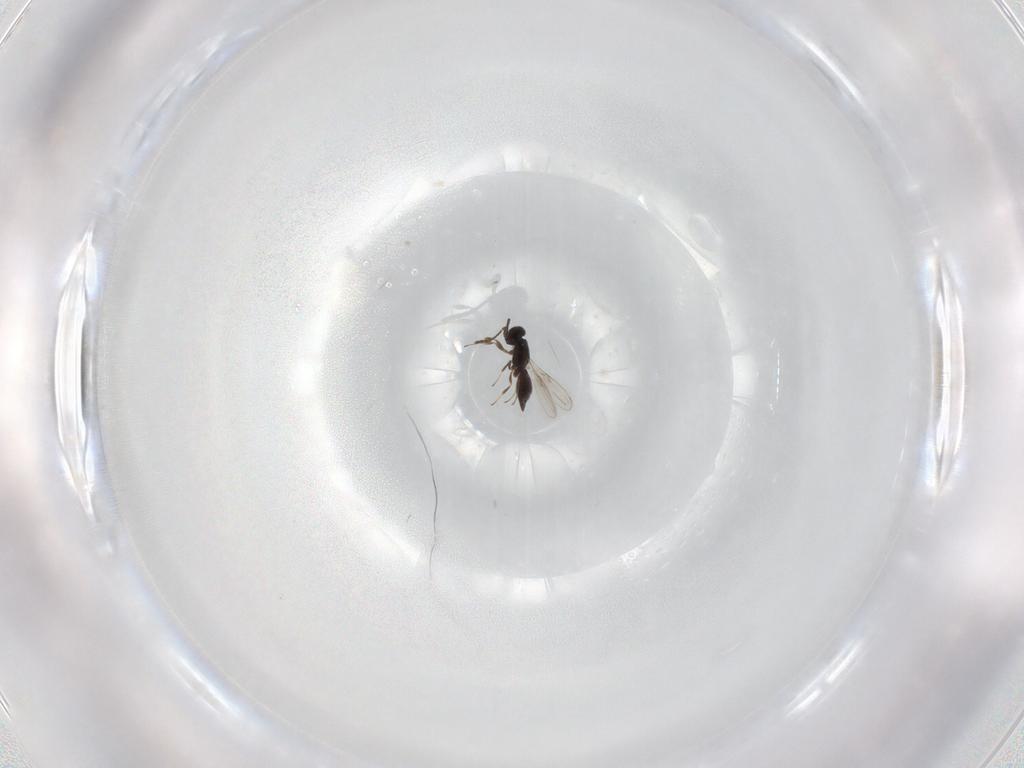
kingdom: Animalia
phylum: Arthropoda
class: Insecta
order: Hymenoptera
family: Scelionidae
